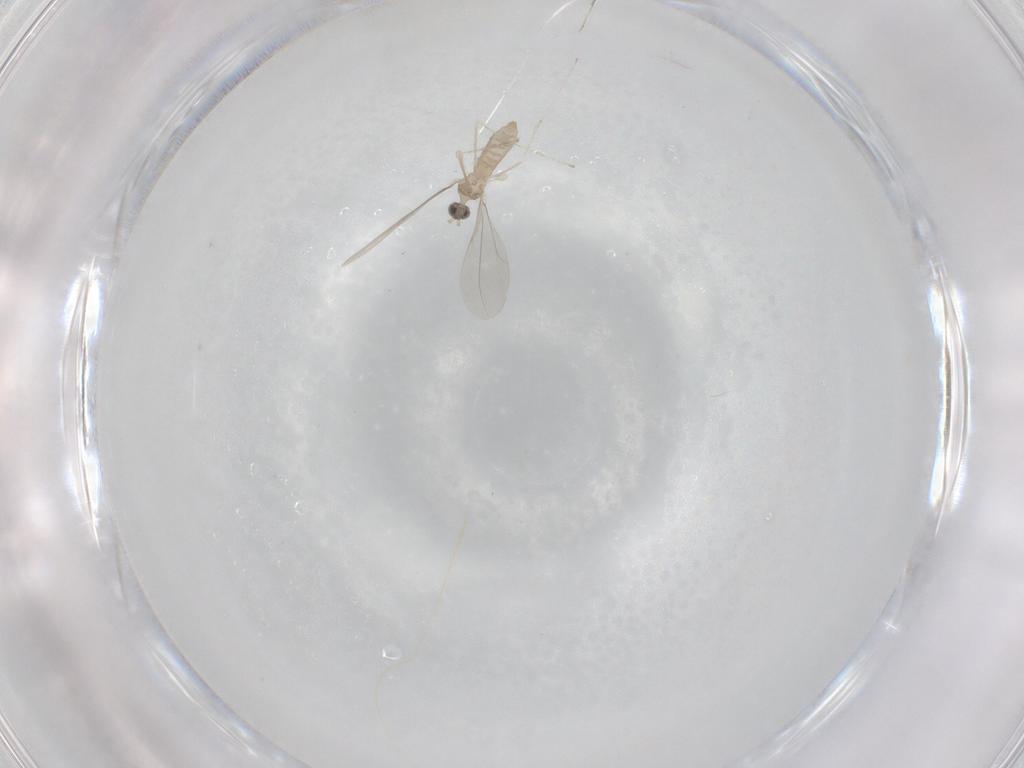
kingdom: Animalia
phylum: Arthropoda
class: Insecta
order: Diptera
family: Cecidomyiidae
